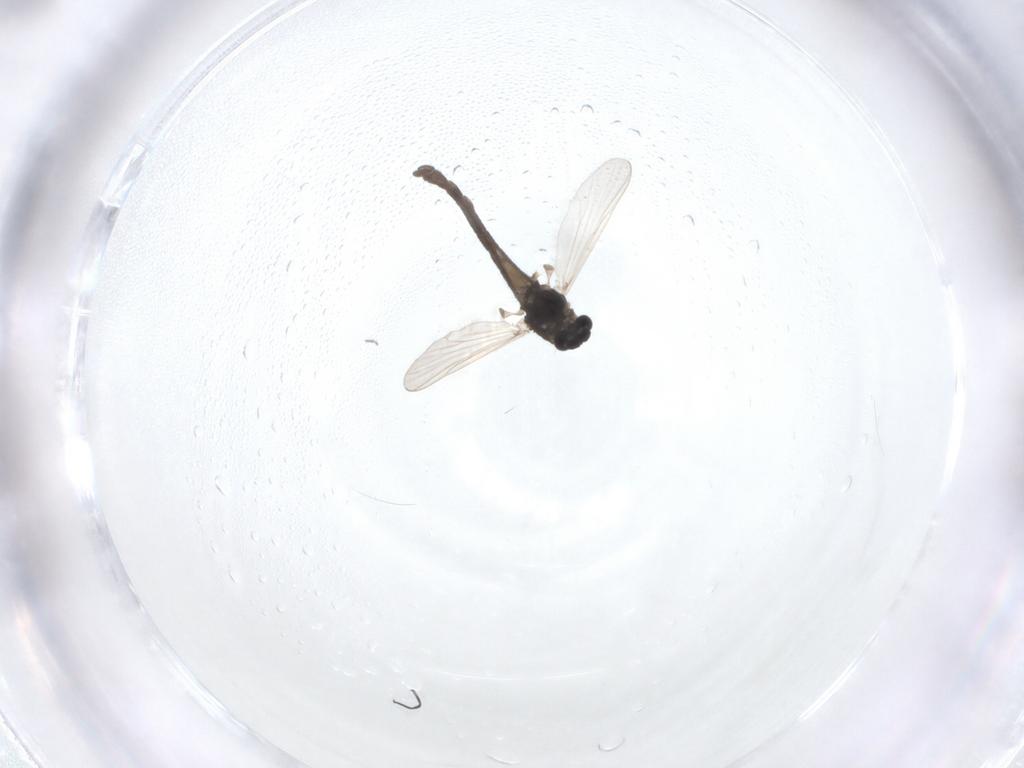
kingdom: Animalia
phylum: Arthropoda
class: Insecta
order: Diptera
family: Chironomidae
